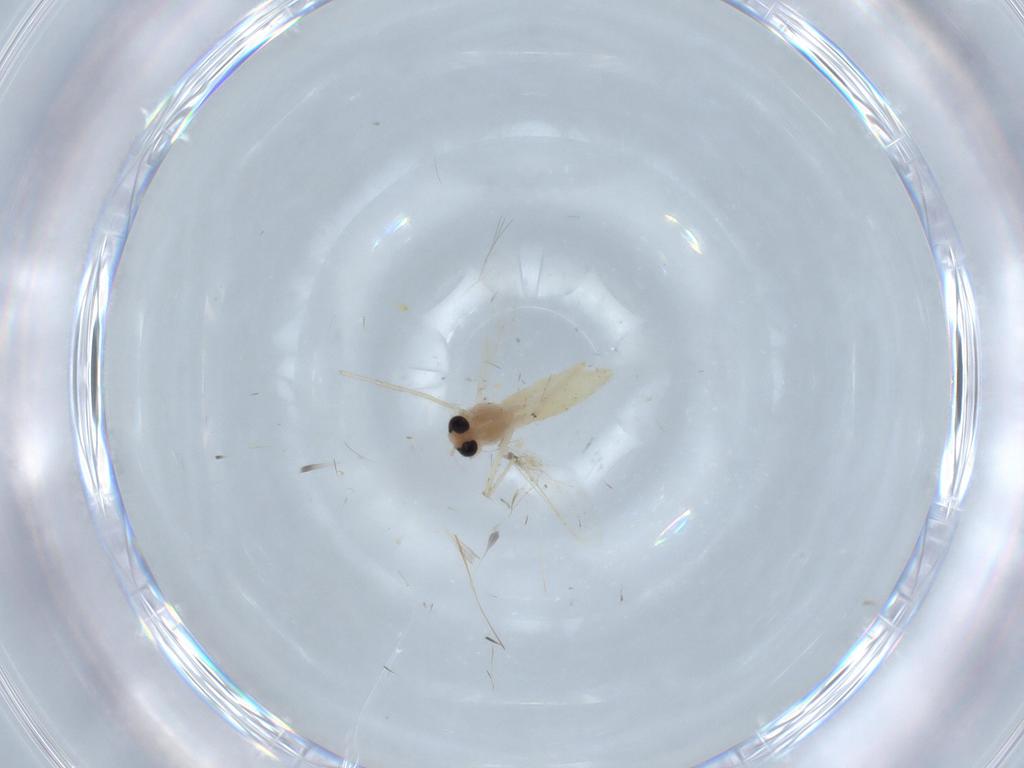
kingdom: Animalia
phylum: Arthropoda
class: Insecta
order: Diptera
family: Chironomidae
